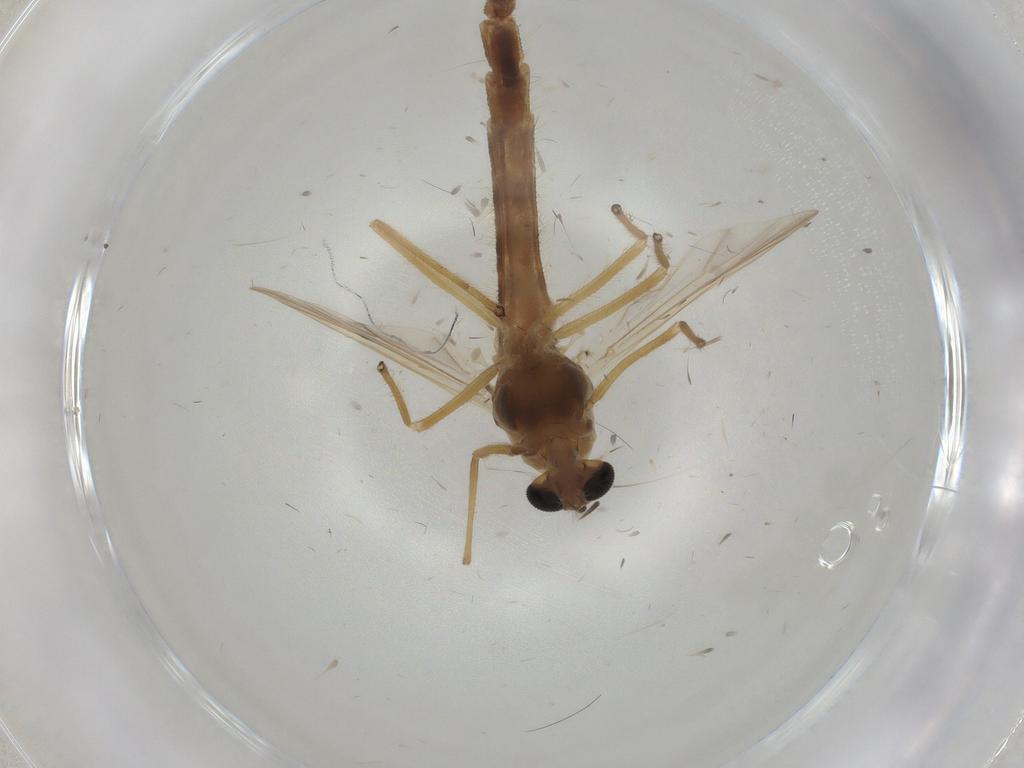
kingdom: Animalia
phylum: Arthropoda
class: Insecta
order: Diptera
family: Chironomidae
